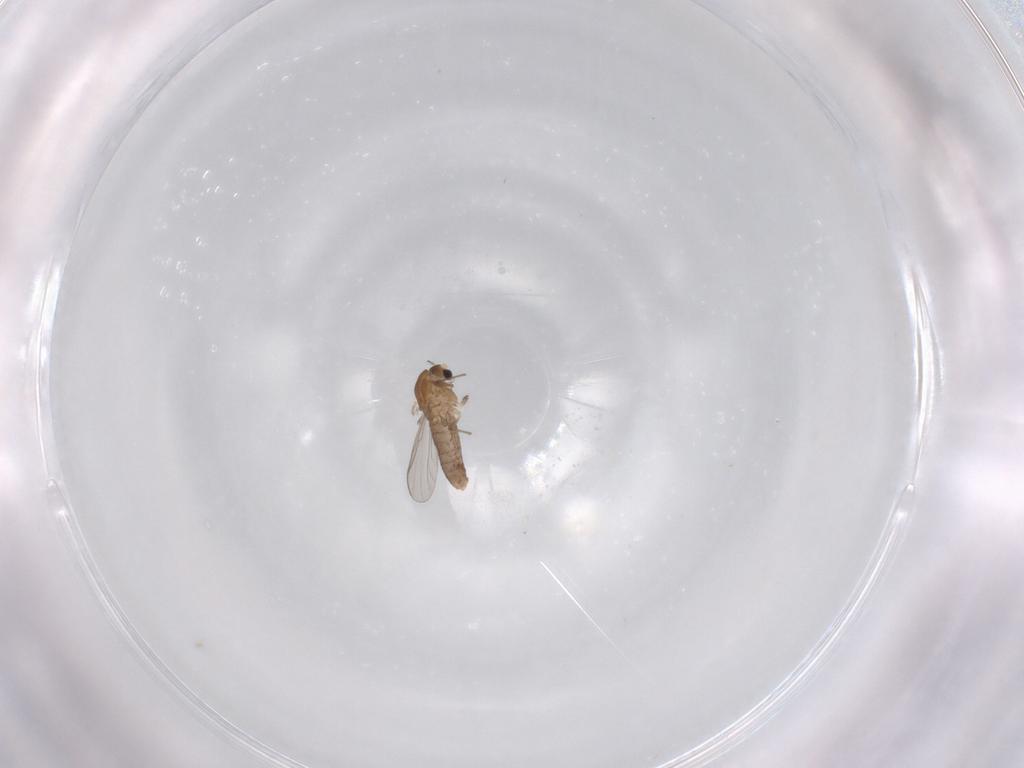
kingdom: Animalia
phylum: Arthropoda
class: Insecta
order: Diptera
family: Chironomidae
